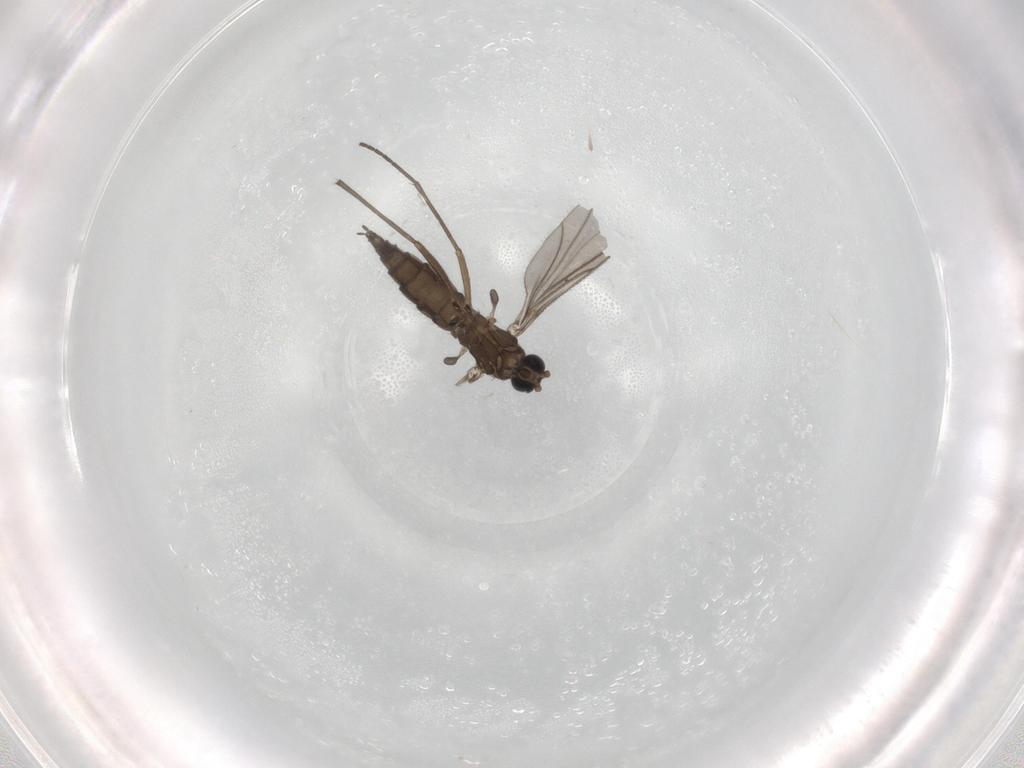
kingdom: Animalia
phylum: Arthropoda
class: Insecta
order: Diptera
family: Sciaridae
